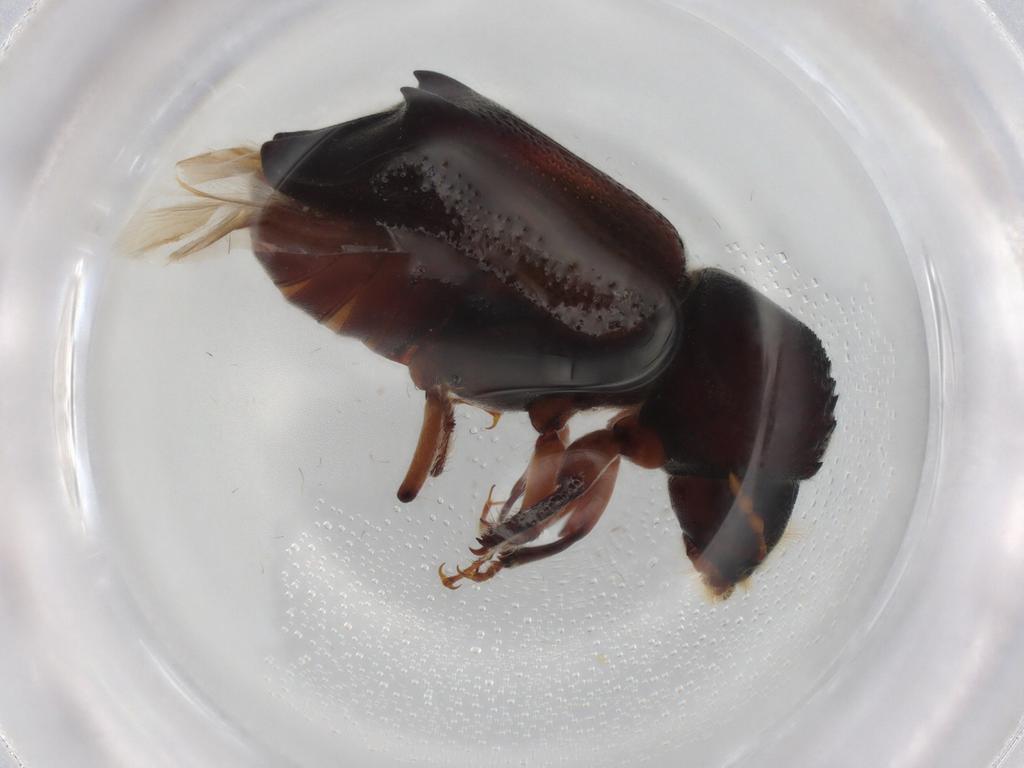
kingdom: Animalia
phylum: Arthropoda
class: Insecta
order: Coleoptera
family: Bostrichidae
